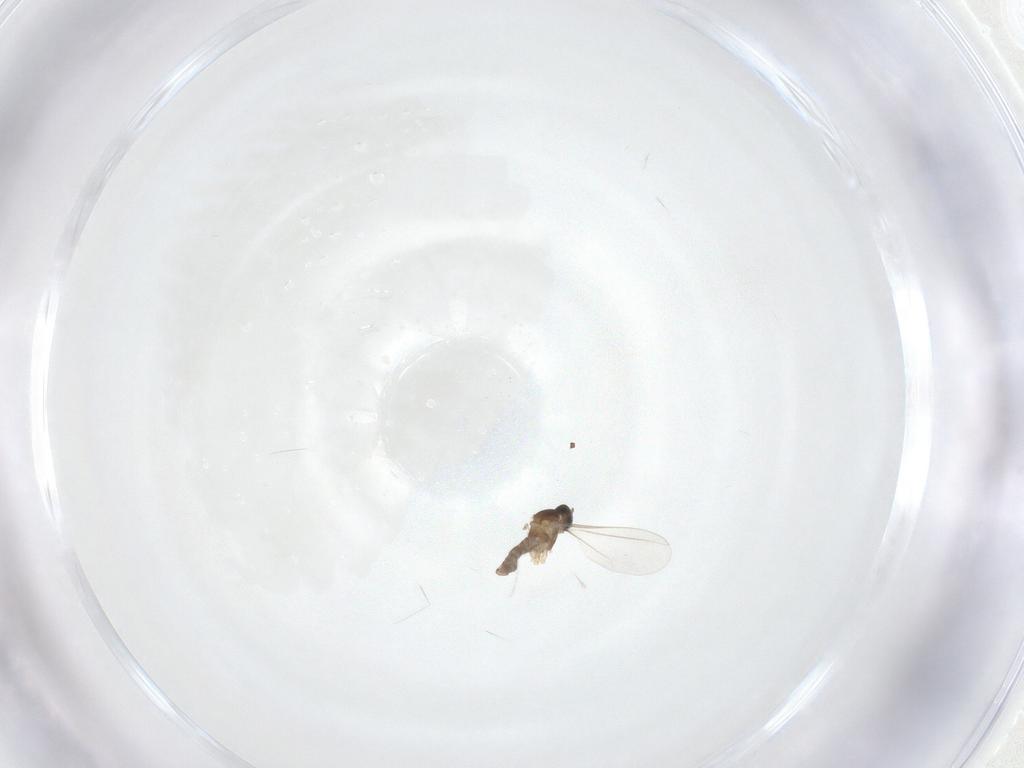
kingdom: Animalia
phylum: Arthropoda
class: Insecta
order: Diptera
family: Cecidomyiidae
